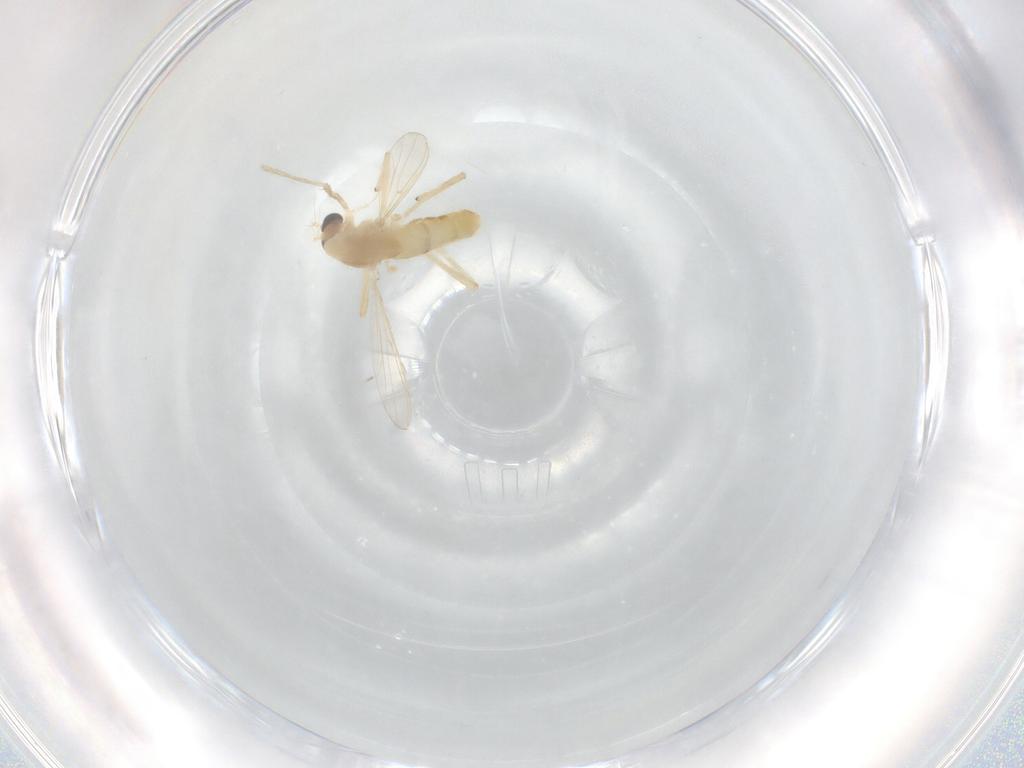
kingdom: Animalia
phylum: Arthropoda
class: Insecta
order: Diptera
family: Chironomidae
